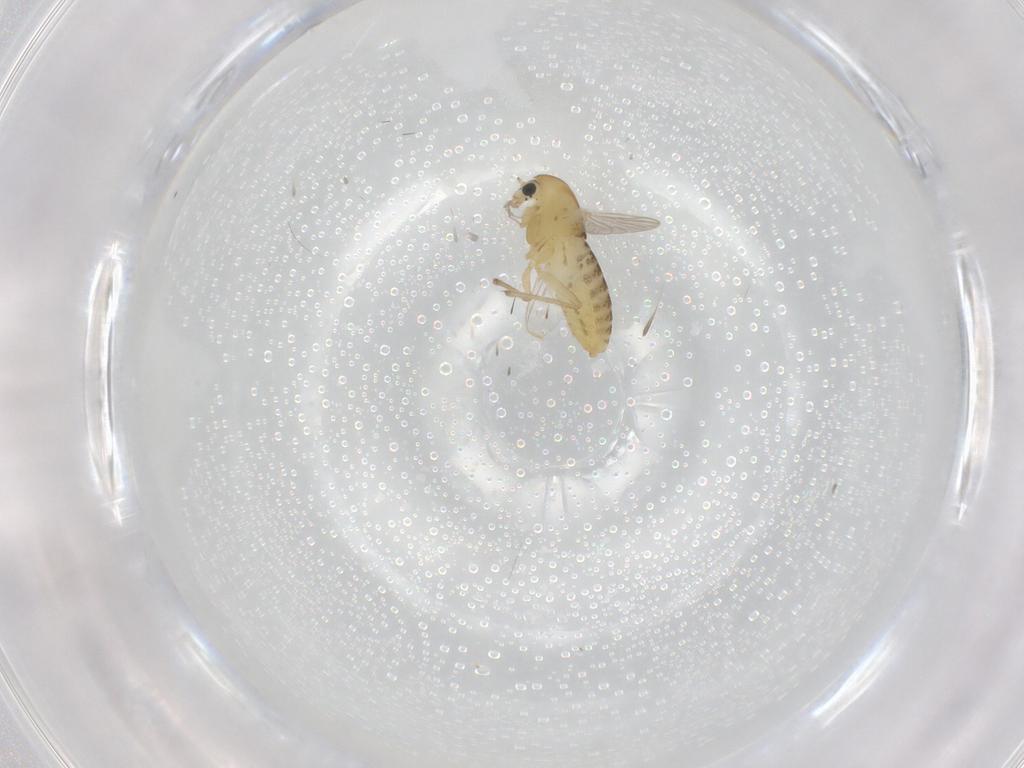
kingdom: Animalia
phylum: Arthropoda
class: Insecta
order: Diptera
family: Chironomidae
